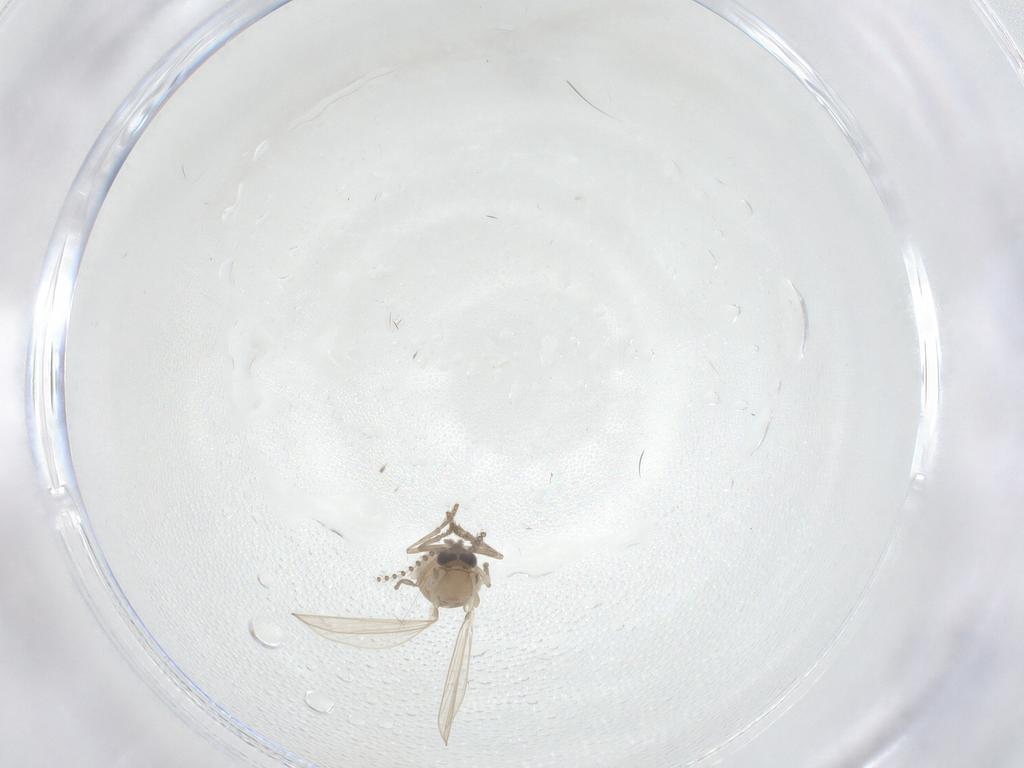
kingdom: Animalia
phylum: Arthropoda
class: Insecta
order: Diptera
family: Psychodidae
